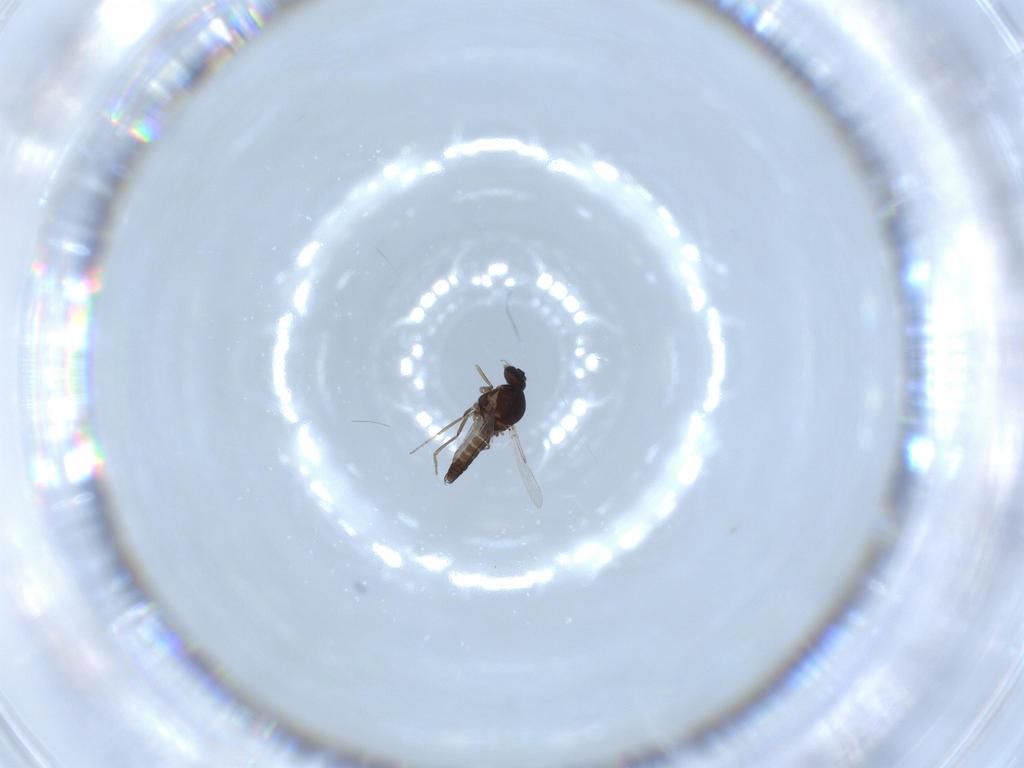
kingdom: Animalia
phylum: Arthropoda
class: Insecta
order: Diptera
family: Ceratopogonidae
